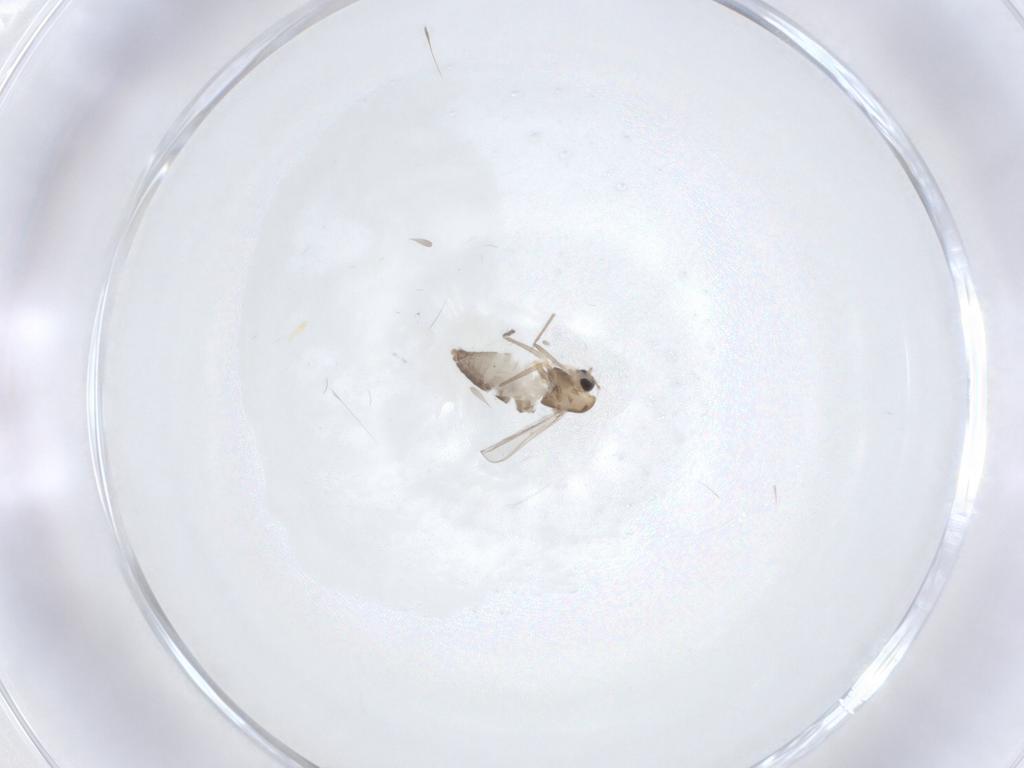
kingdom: Animalia
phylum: Arthropoda
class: Insecta
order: Diptera
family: Chironomidae
